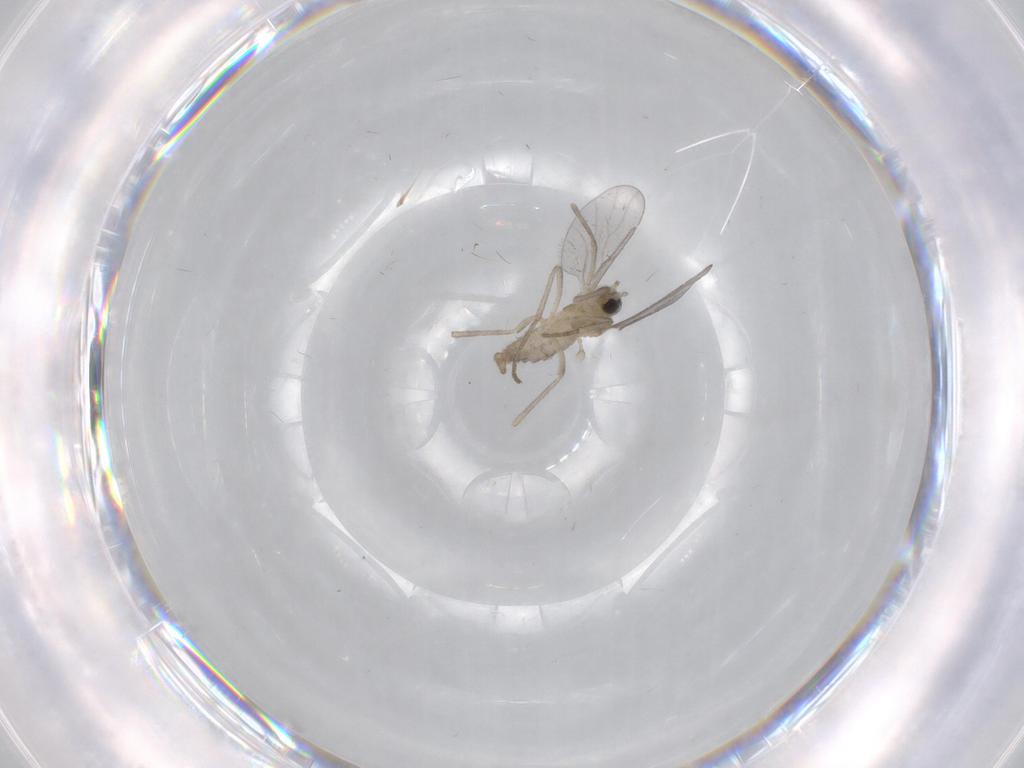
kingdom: Animalia
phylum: Arthropoda
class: Insecta
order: Diptera
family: Cecidomyiidae
